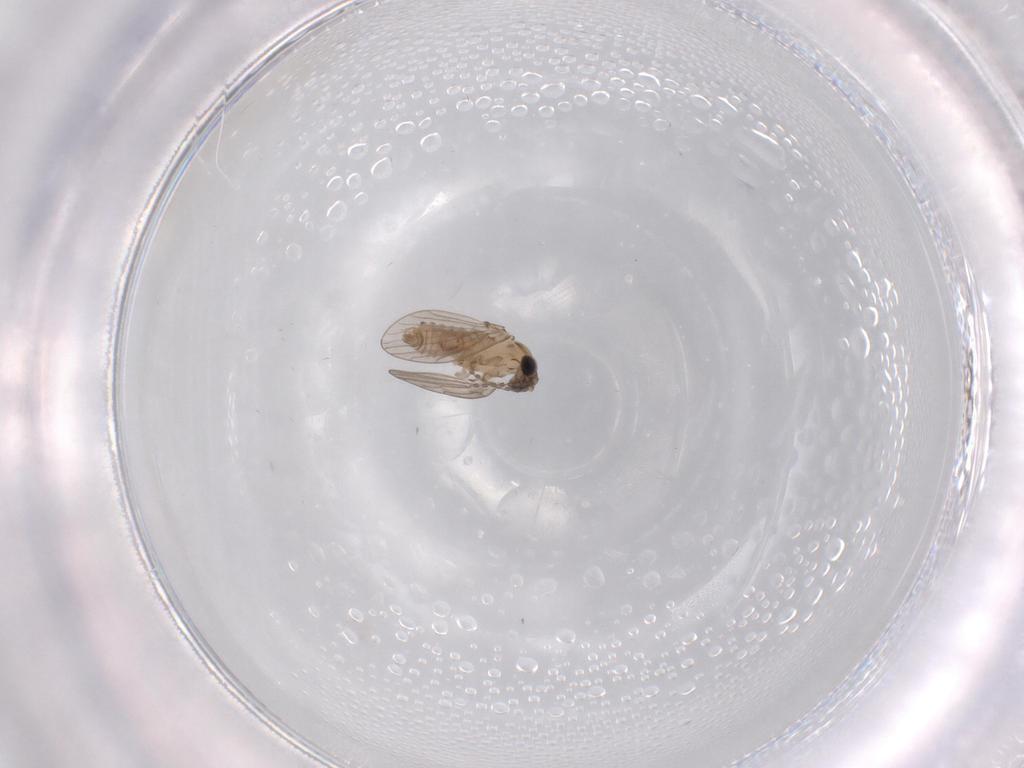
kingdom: Animalia
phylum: Arthropoda
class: Insecta
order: Diptera
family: Psychodidae
